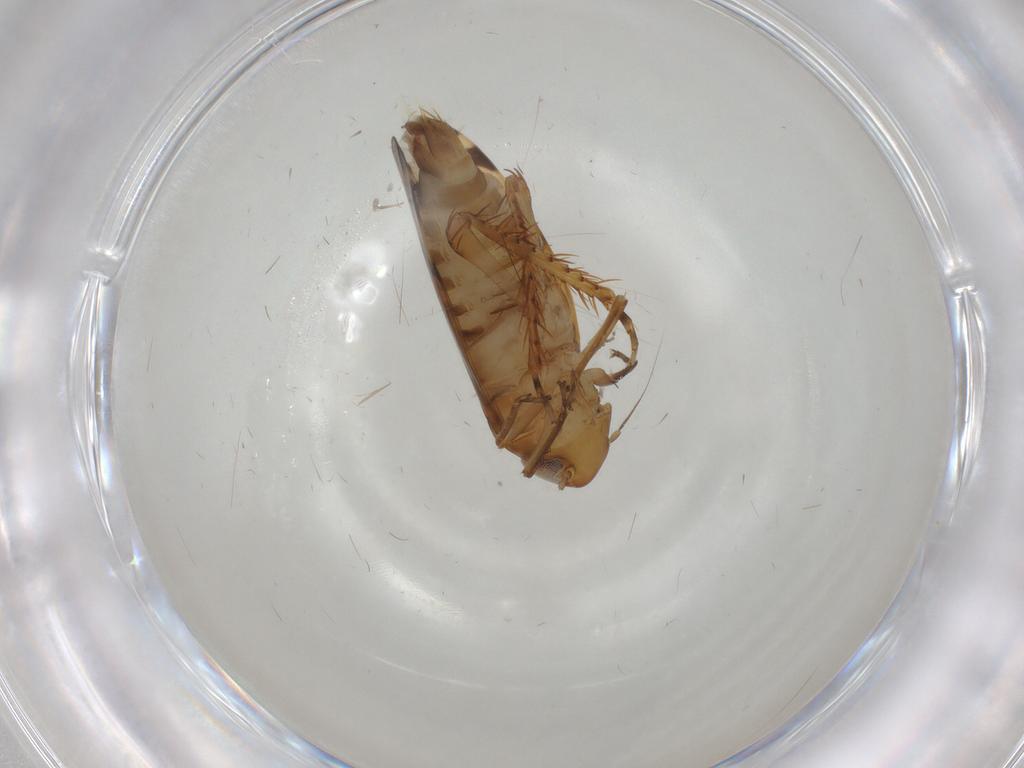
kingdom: Animalia
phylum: Arthropoda
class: Insecta
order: Hemiptera
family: Cicadellidae
